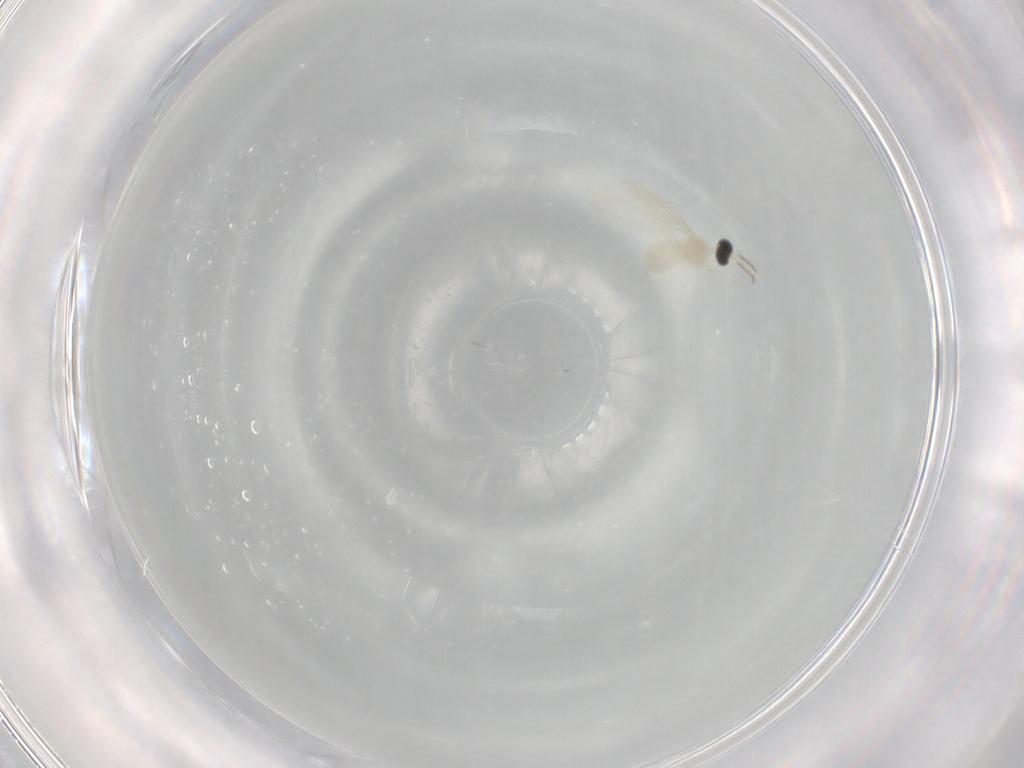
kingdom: Animalia
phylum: Arthropoda
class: Insecta
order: Diptera
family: Cecidomyiidae
